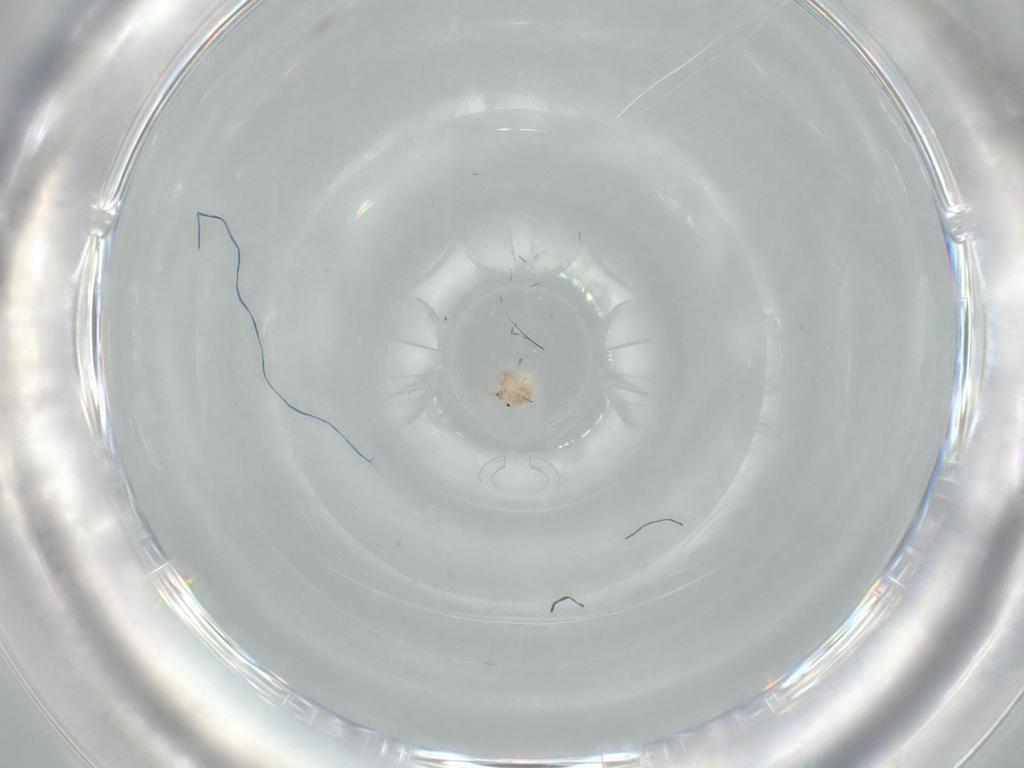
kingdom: Animalia
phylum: Arthropoda
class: Arachnida
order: Trombidiformes
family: Arrenuridae
